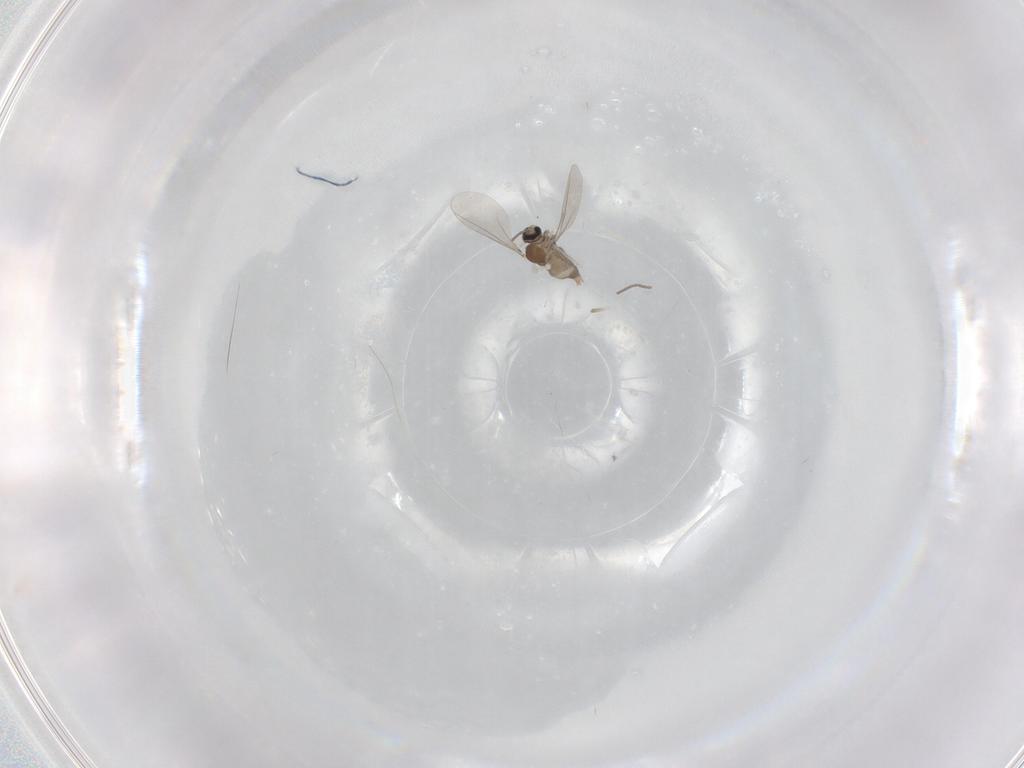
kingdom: Animalia
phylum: Arthropoda
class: Insecta
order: Diptera
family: Cecidomyiidae
